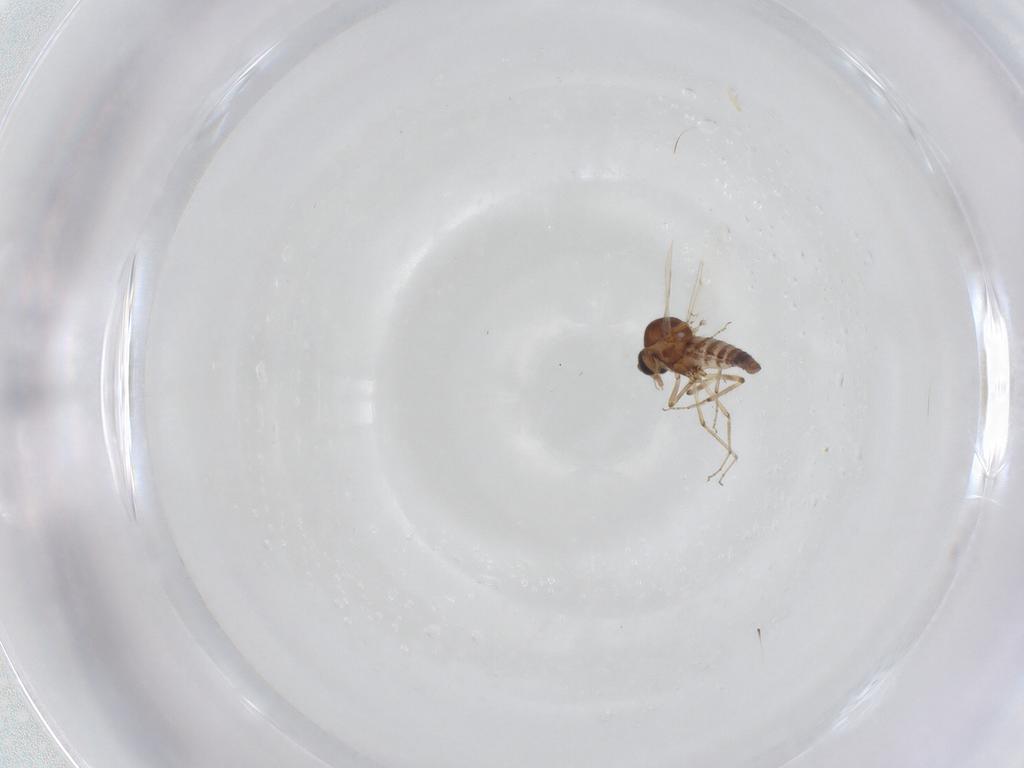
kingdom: Animalia
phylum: Arthropoda
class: Insecta
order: Diptera
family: Ceratopogonidae
